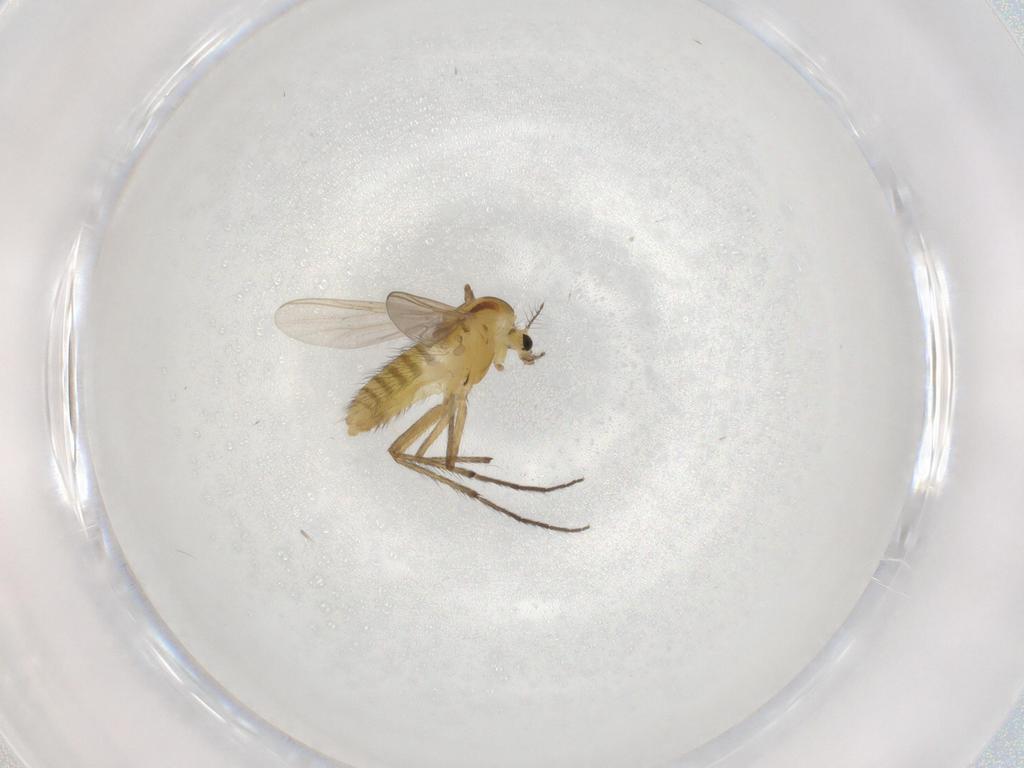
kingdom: Animalia
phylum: Arthropoda
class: Insecta
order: Diptera
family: Chironomidae
